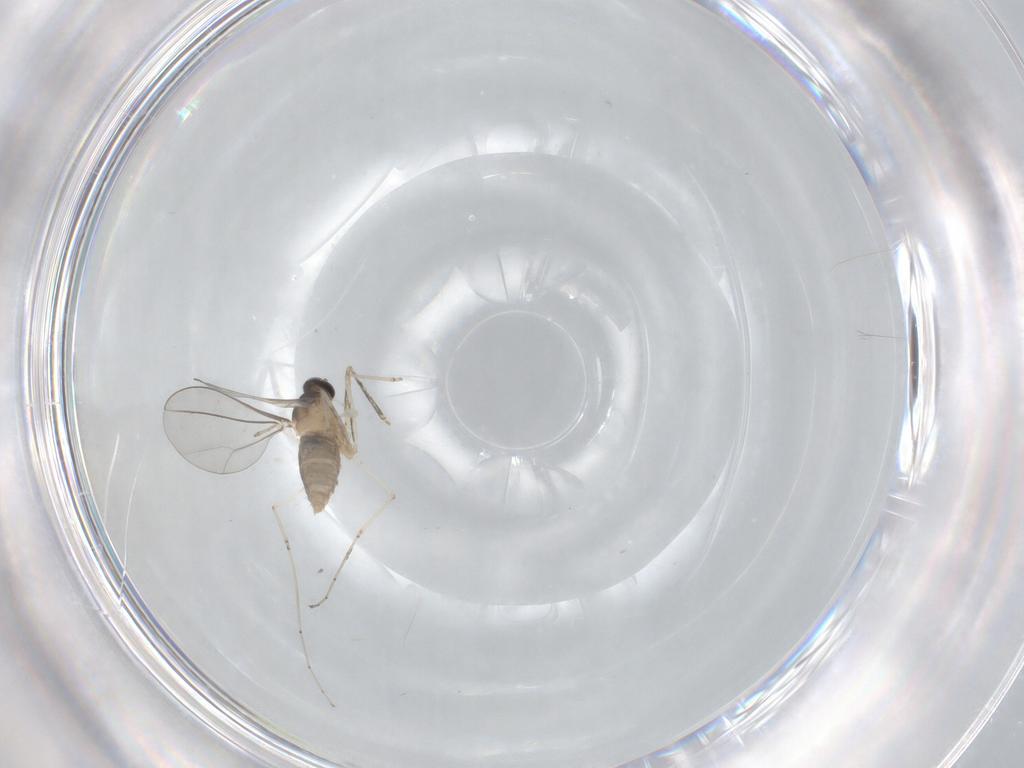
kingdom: Animalia
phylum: Arthropoda
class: Insecta
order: Diptera
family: Cecidomyiidae
